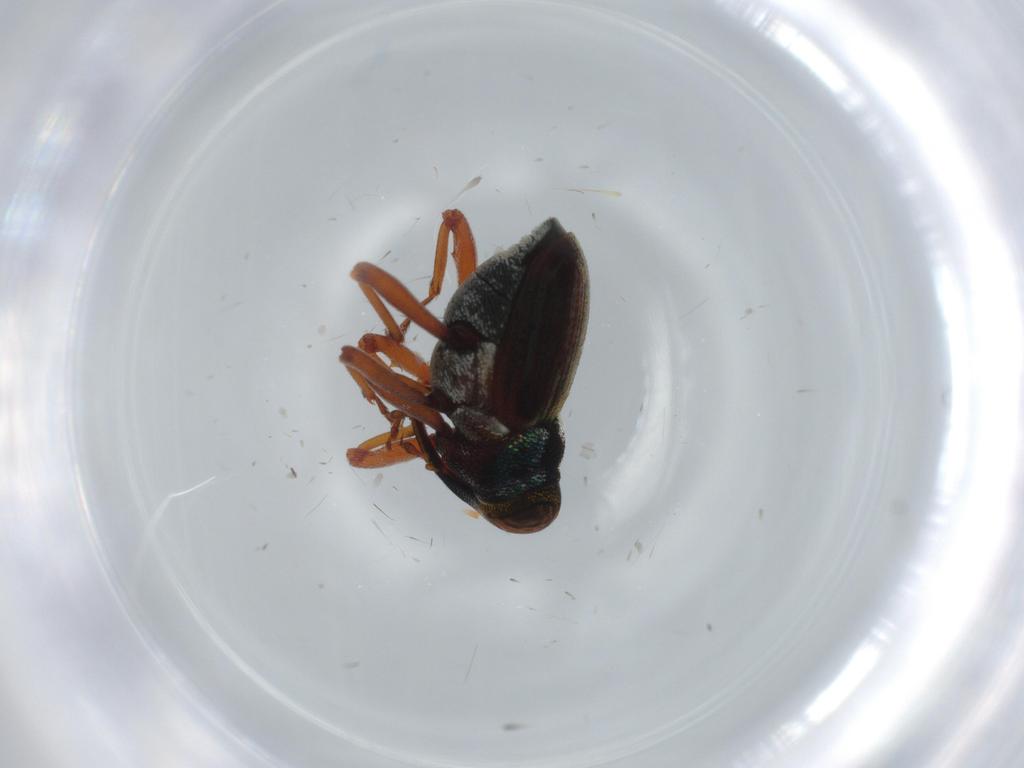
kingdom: Animalia
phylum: Arthropoda
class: Insecta
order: Coleoptera
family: Curculionidae
